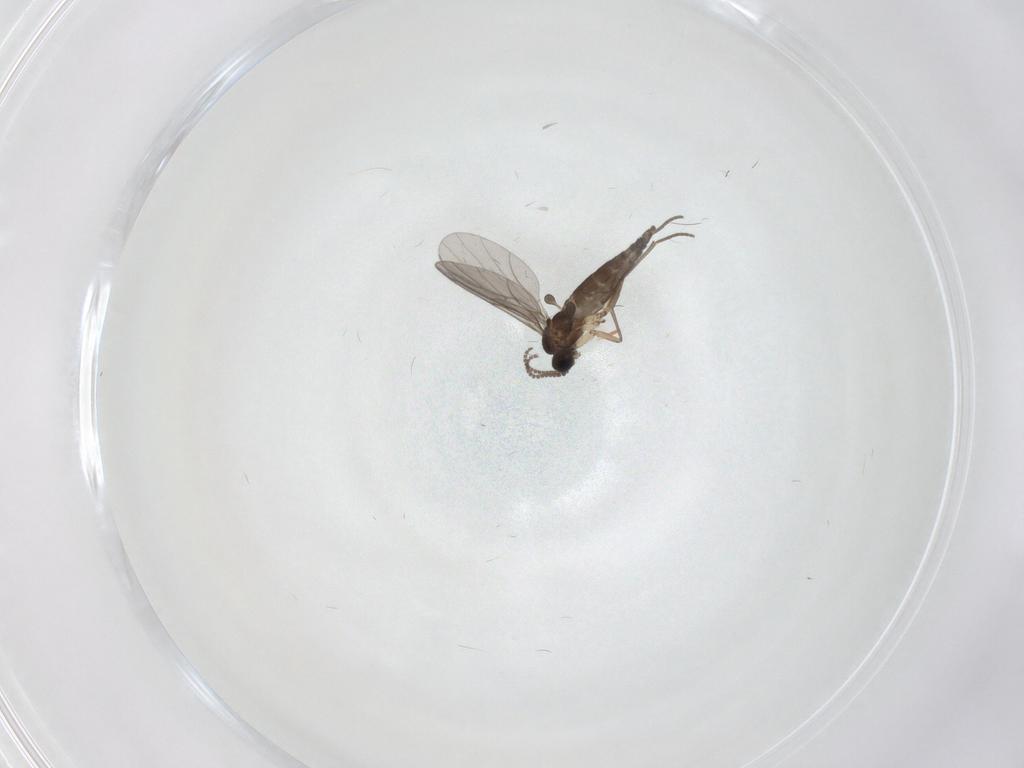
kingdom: Animalia
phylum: Arthropoda
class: Insecta
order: Diptera
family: Sciaridae
